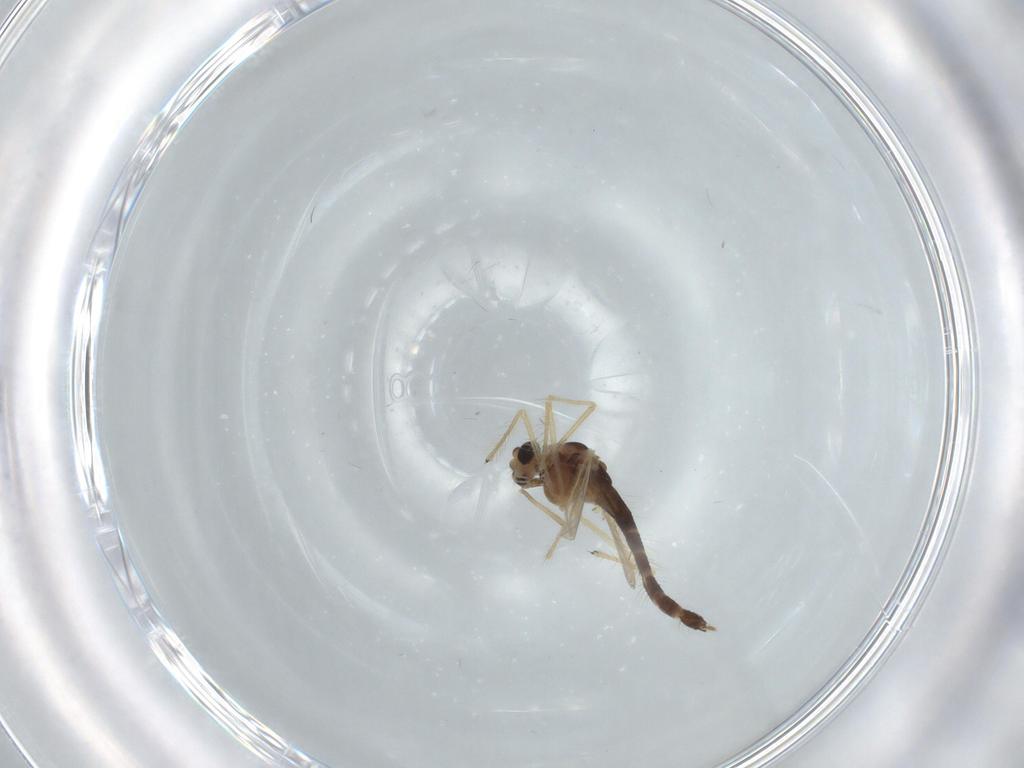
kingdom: Animalia
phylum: Arthropoda
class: Insecta
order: Diptera
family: Chironomidae
